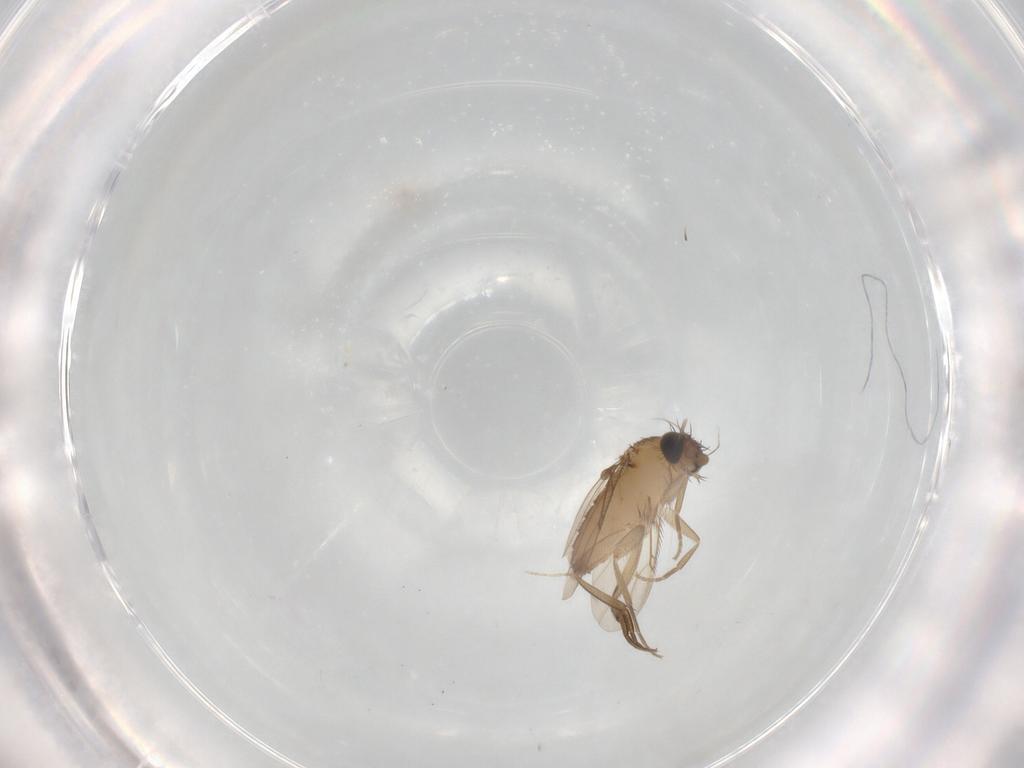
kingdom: Animalia
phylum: Arthropoda
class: Insecta
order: Diptera
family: Phoridae
